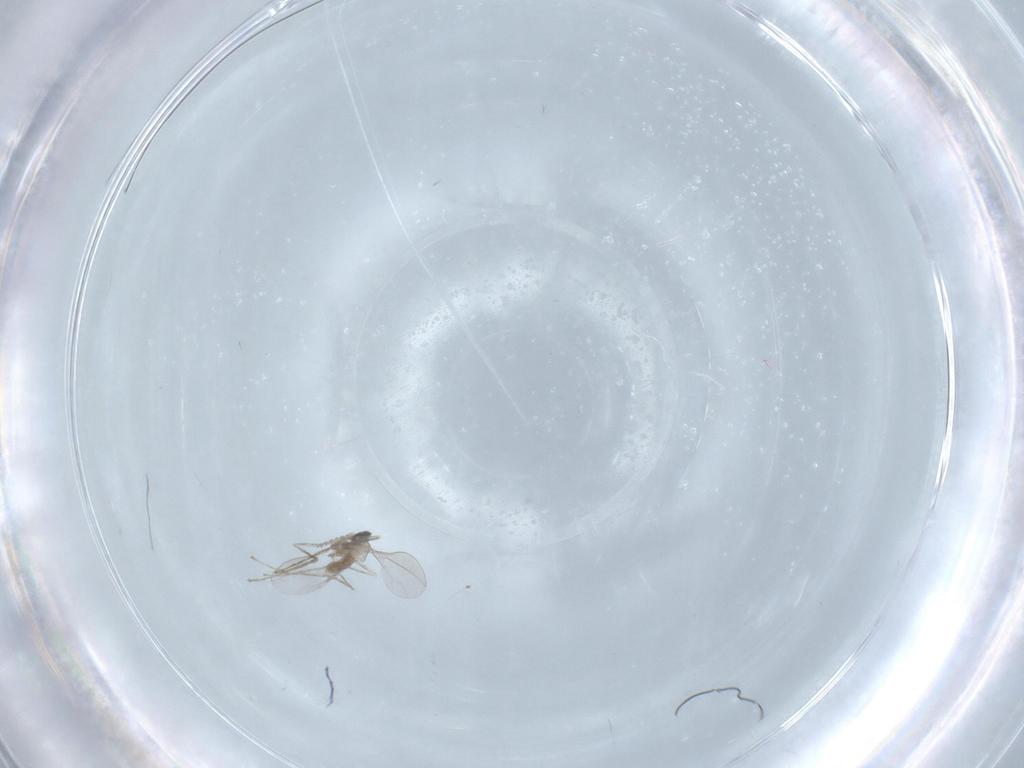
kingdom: Animalia
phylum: Arthropoda
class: Insecta
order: Diptera
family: Cecidomyiidae
